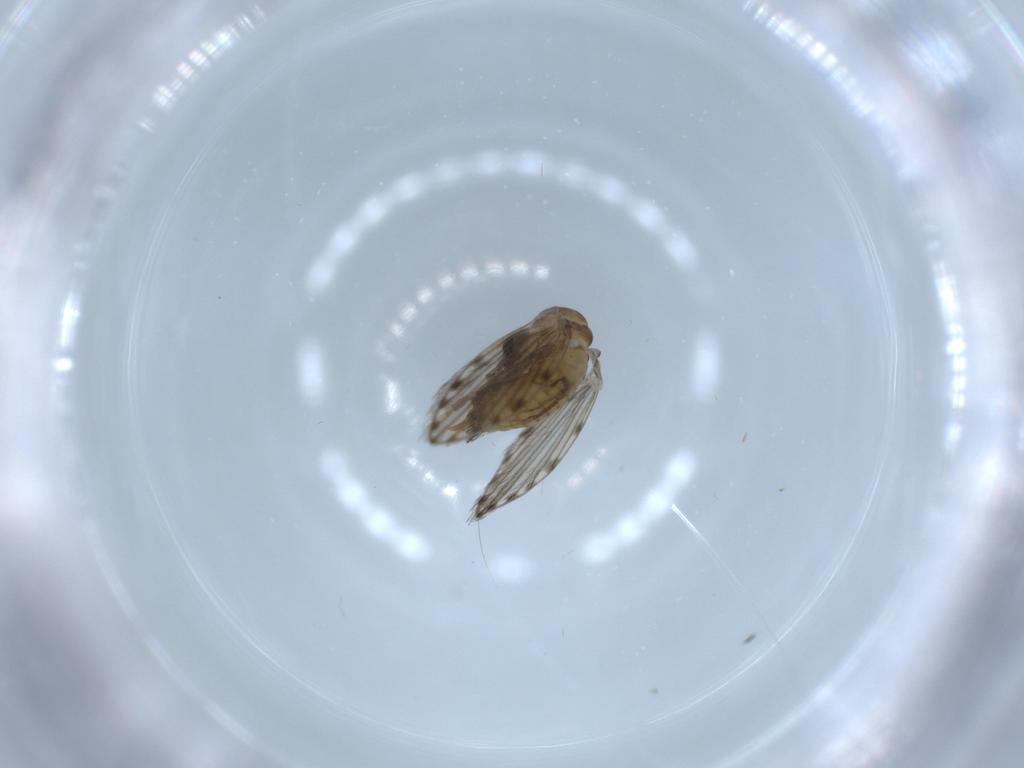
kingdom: Animalia
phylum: Arthropoda
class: Insecta
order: Diptera
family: Psychodidae
